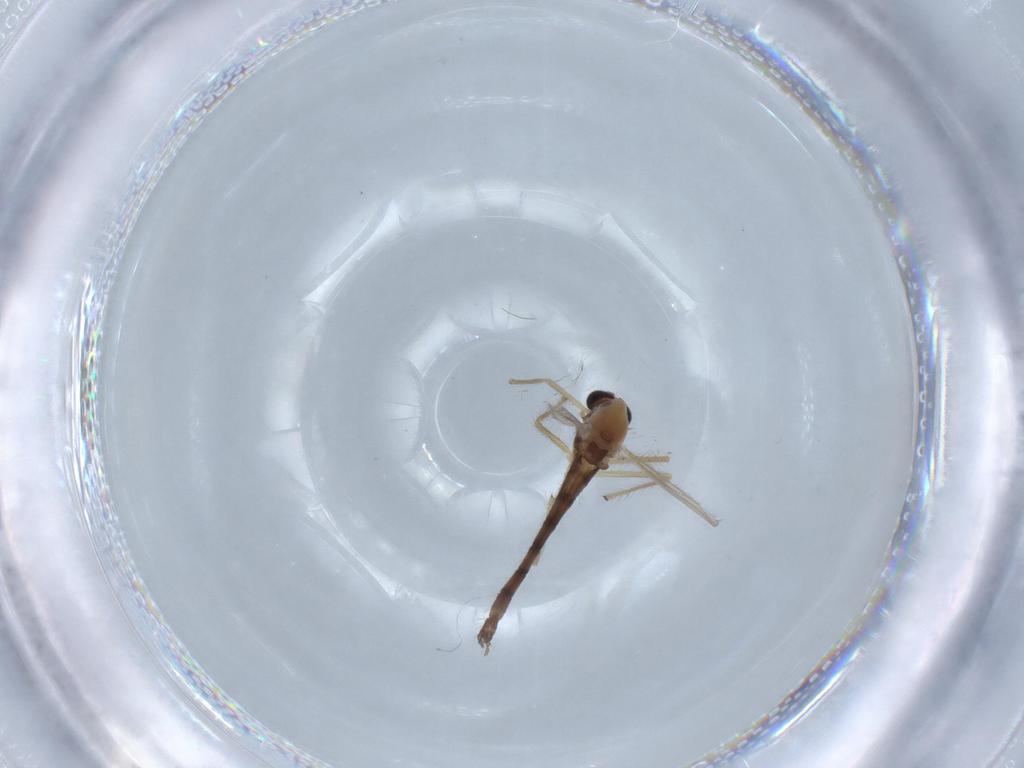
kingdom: Animalia
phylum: Arthropoda
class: Insecta
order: Diptera
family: Chironomidae
